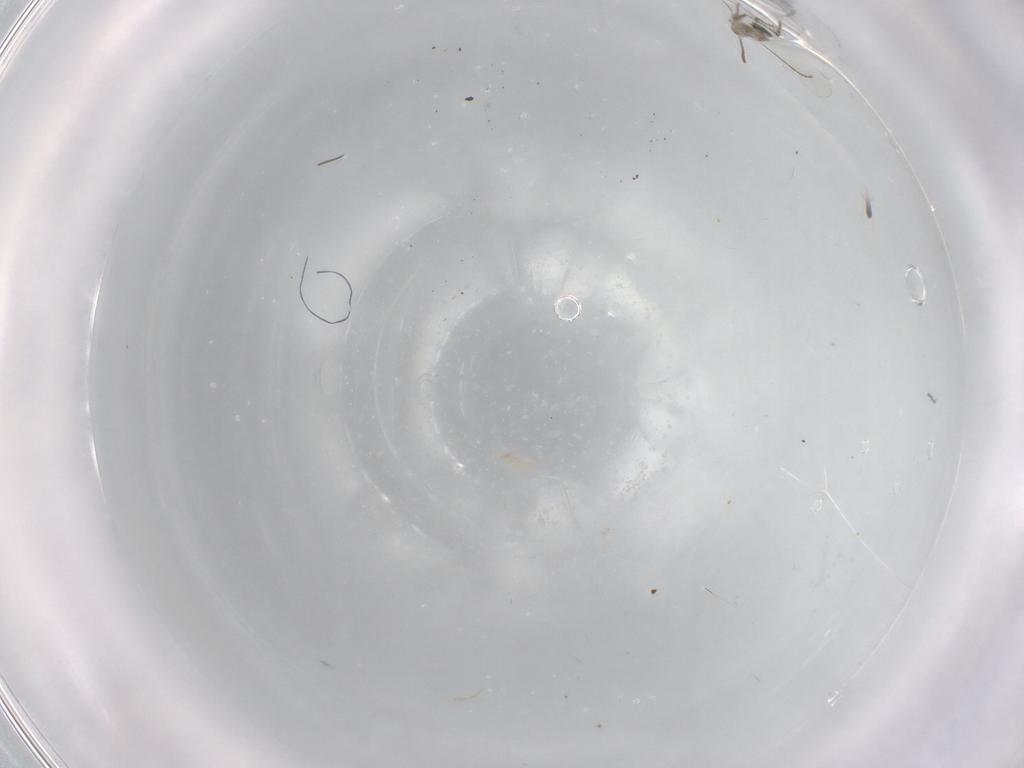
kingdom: Animalia
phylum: Arthropoda
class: Insecta
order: Diptera
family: Cecidomyiidae
